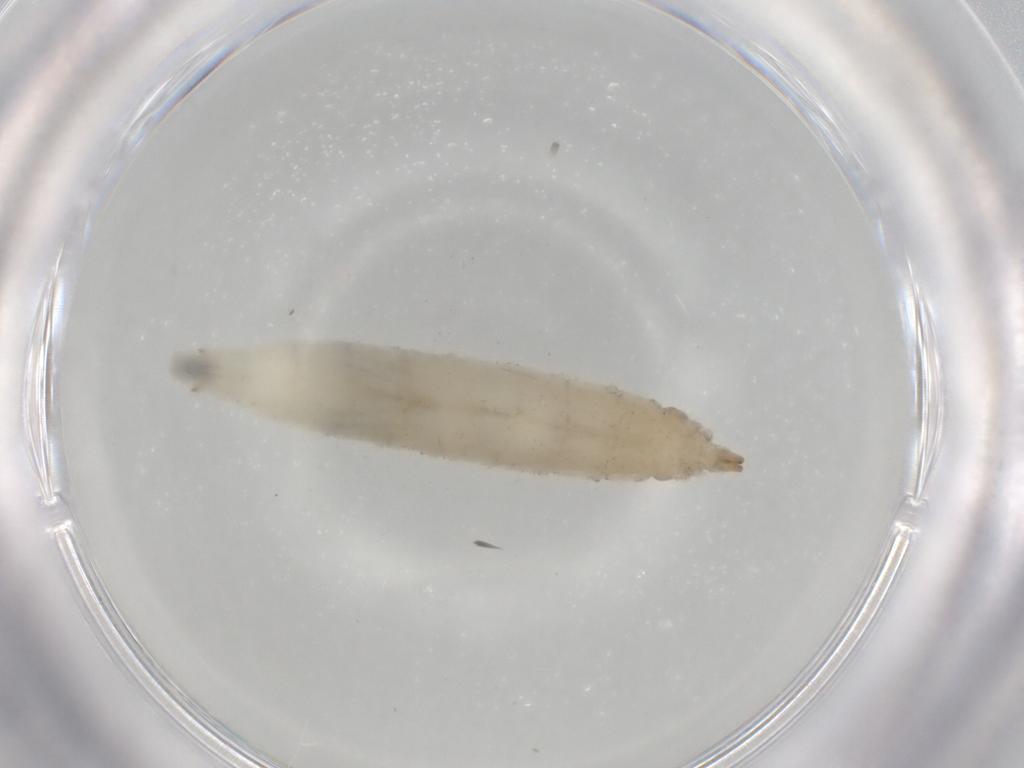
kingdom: Animalia
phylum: Arthropoda
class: Insecta
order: Diptera
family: Drosophilidae
